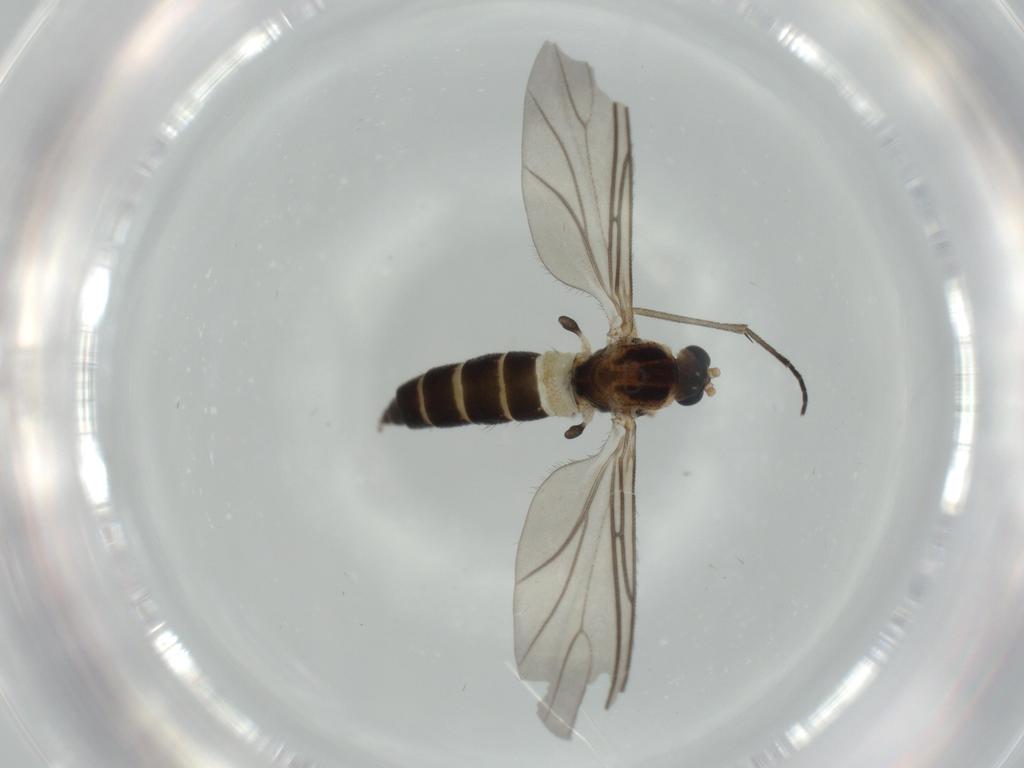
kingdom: Animalia
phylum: Arthropoda
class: Insecta
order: Diptera
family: Sciaridae
